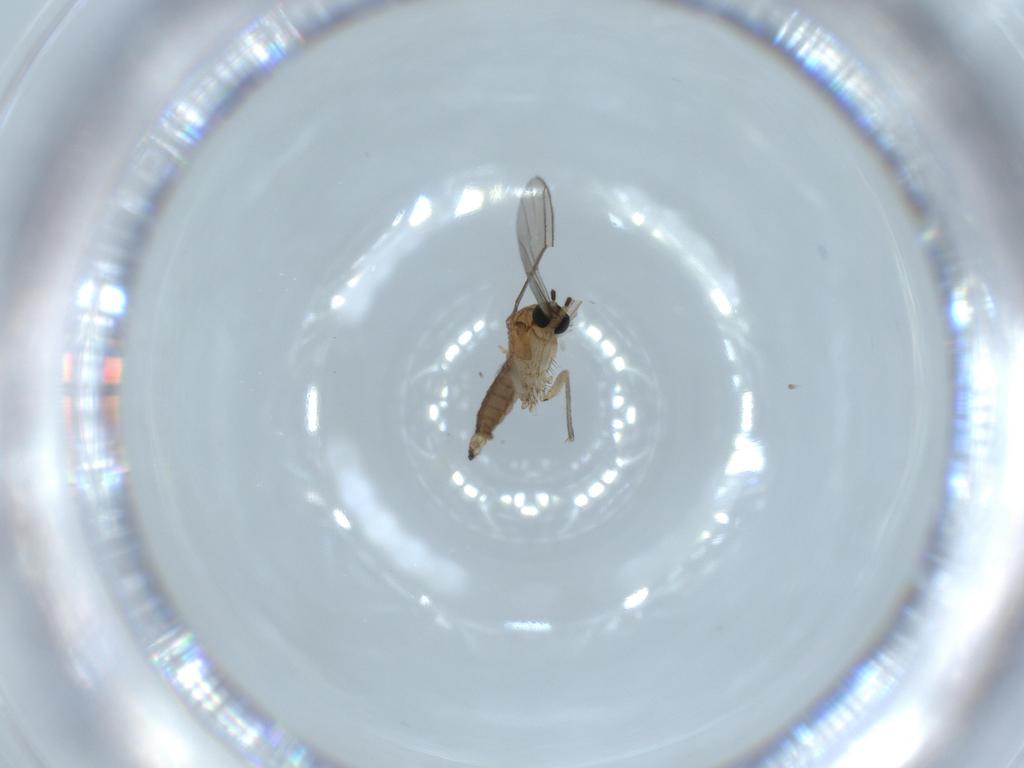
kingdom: Animalia
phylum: Arthropoda
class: Insecta
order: Diptera
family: Sciaridae
